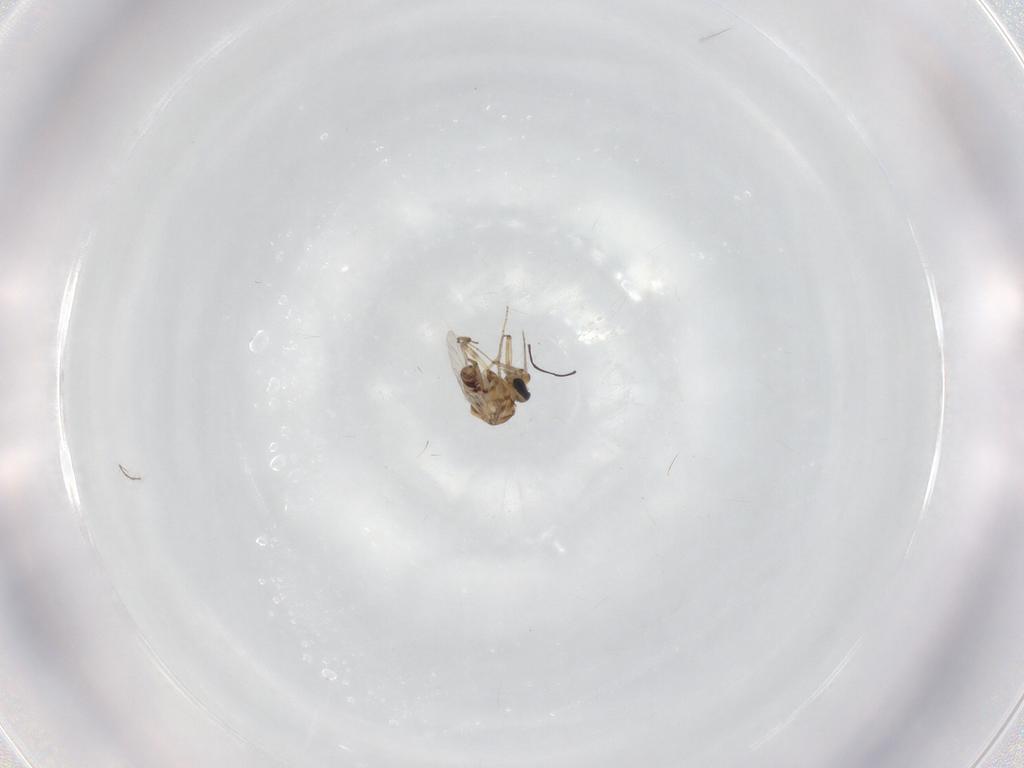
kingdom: Animalia
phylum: Arthropoda
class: Insecta
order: Diptera
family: Ceratopogonidae
